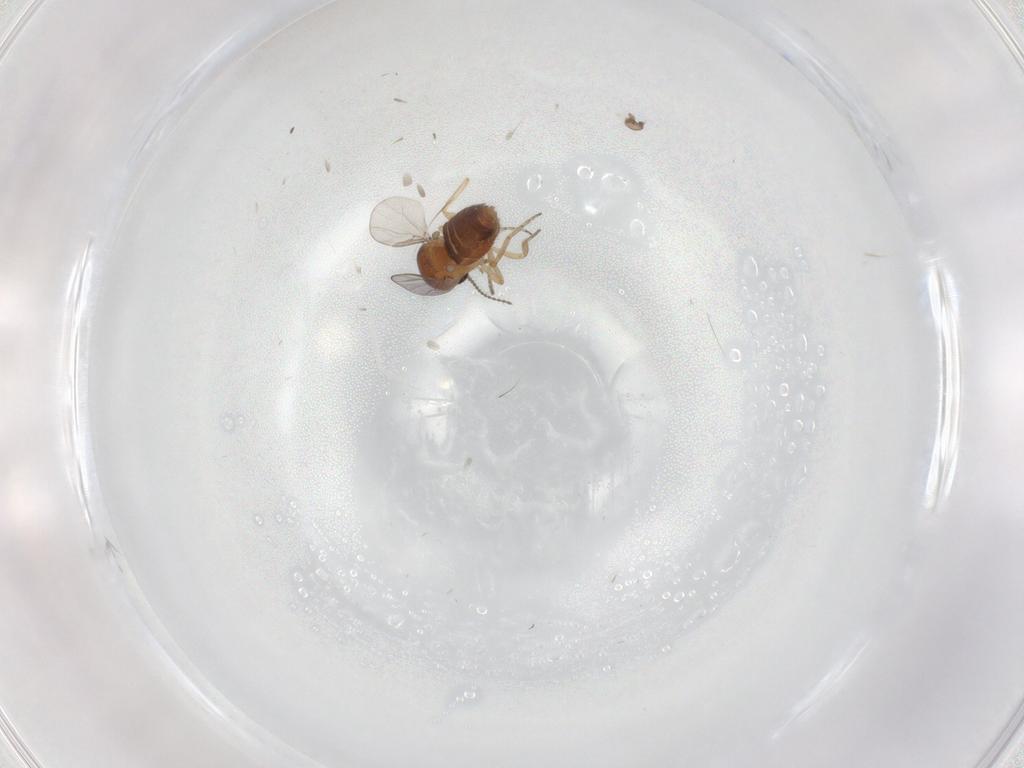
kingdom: Animalia
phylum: Arthropoda
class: Insecta
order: Diptera
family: Ceratopogonidae
